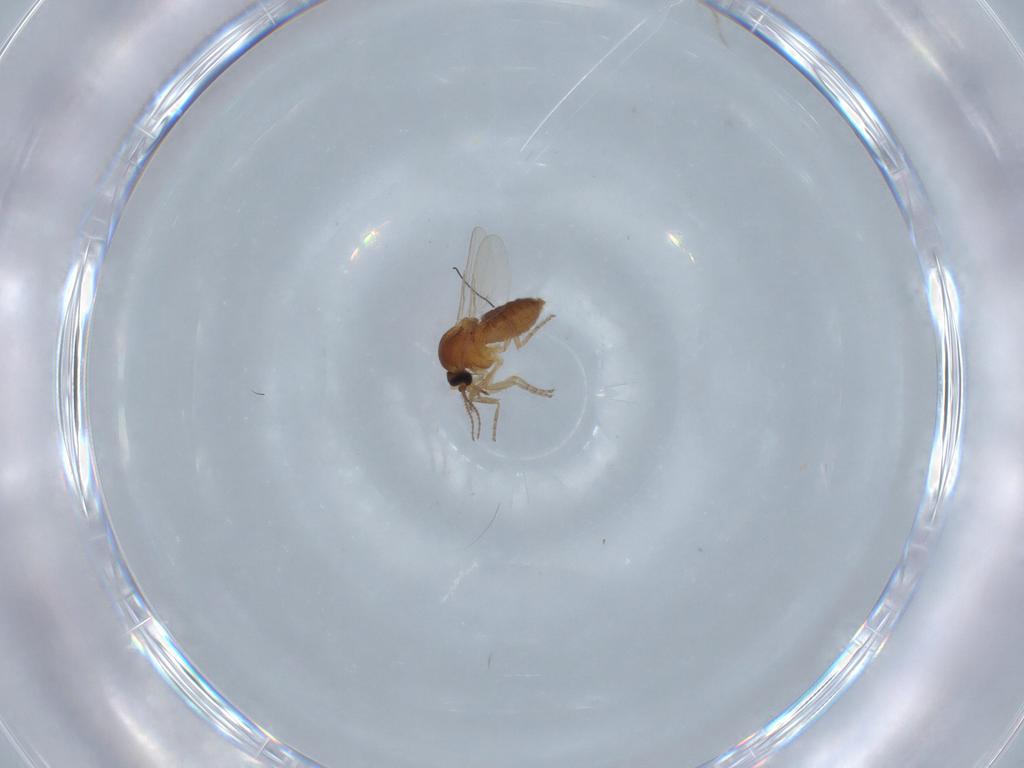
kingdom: Animalia
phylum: Arthropoda
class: Insecta
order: Diptera
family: Ceratopogonidae
